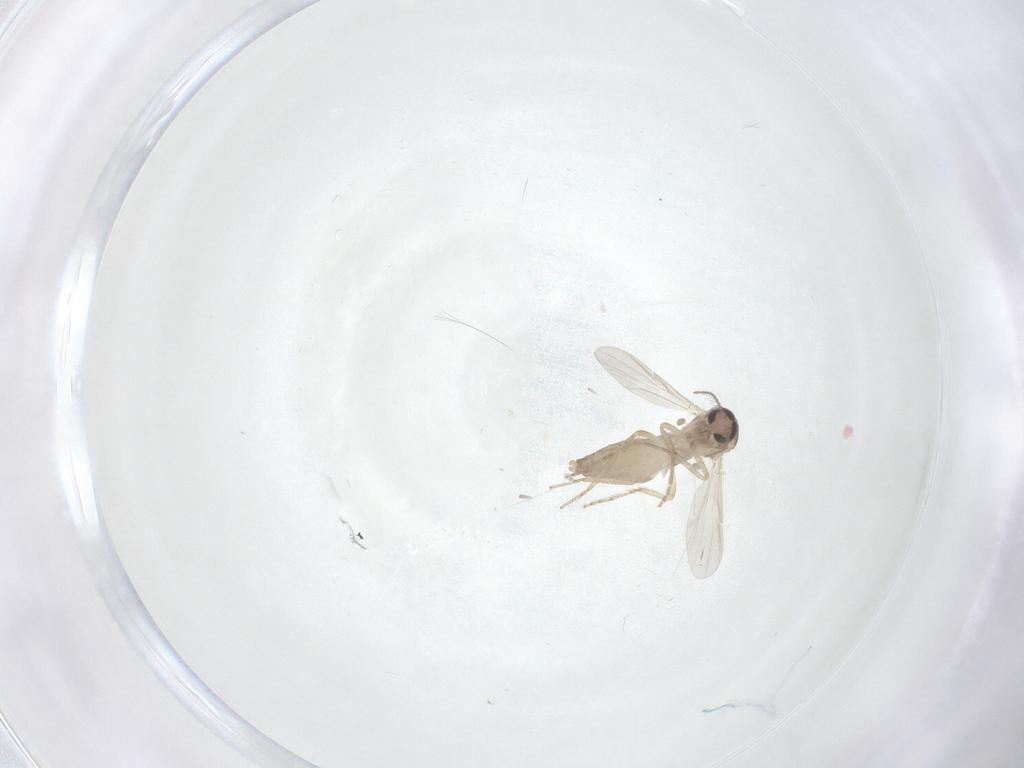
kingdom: Animalia
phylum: Arthropoda
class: Insecta
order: Diptera
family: Ceratopogonidae
